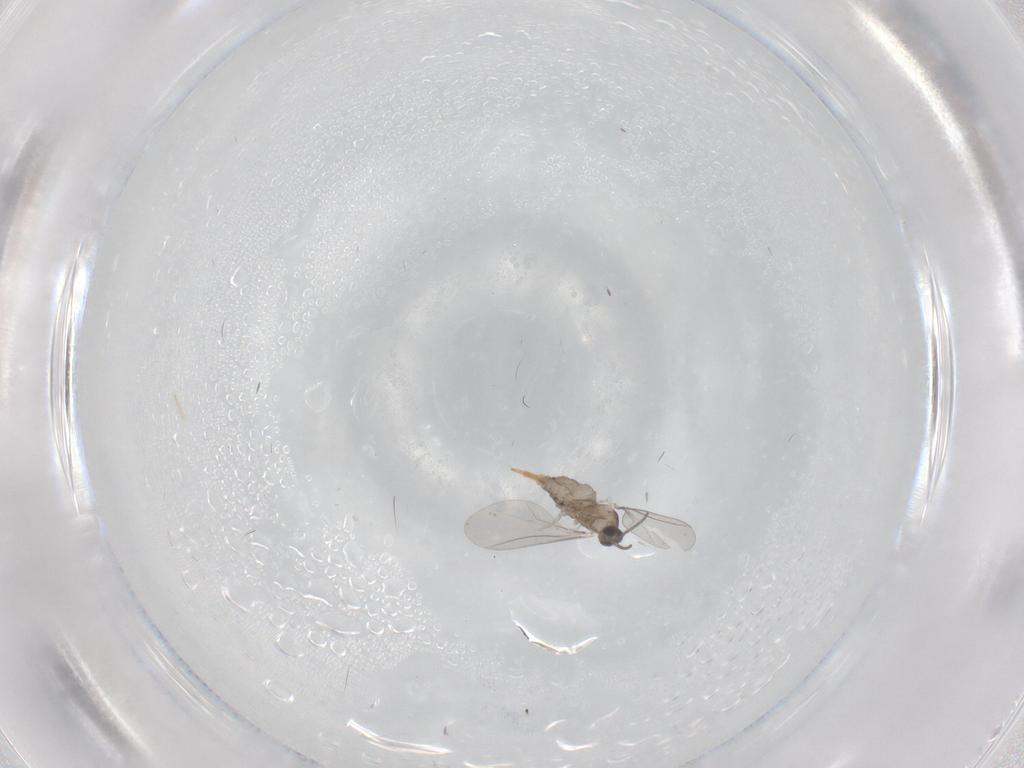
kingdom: Animalia
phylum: Arthropoda
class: Insecta
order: Diptera
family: Cecidomyiidae
